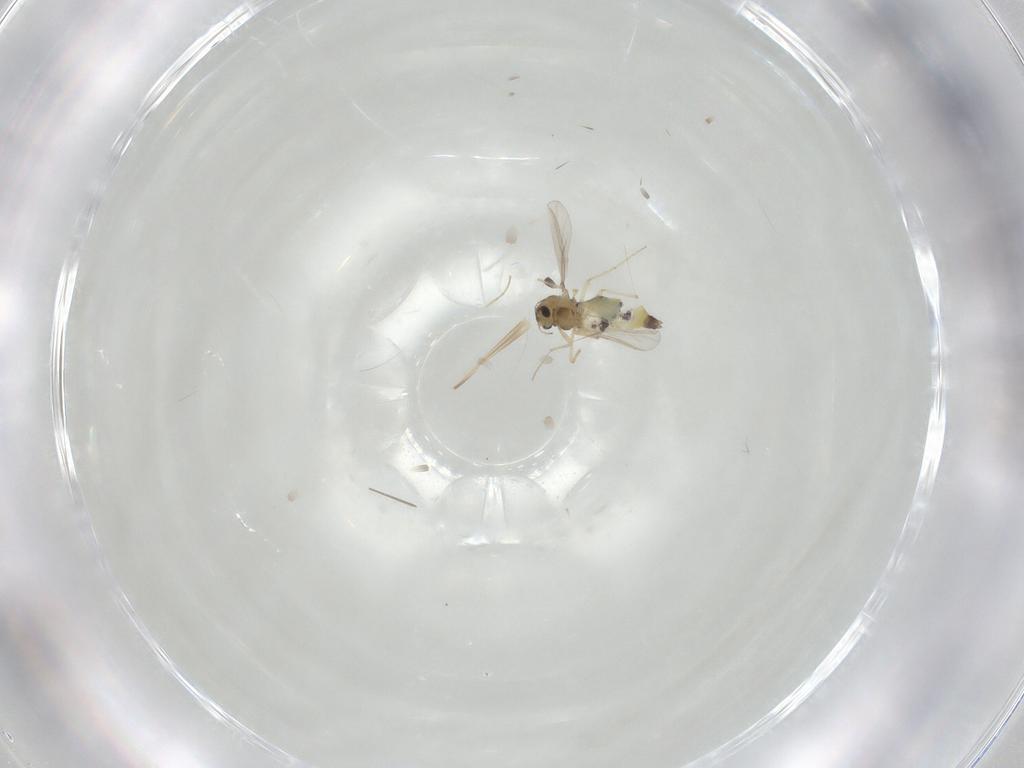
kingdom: Animalia
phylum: Arthropoda
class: Insecta
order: Diptera
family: Chironomidae
